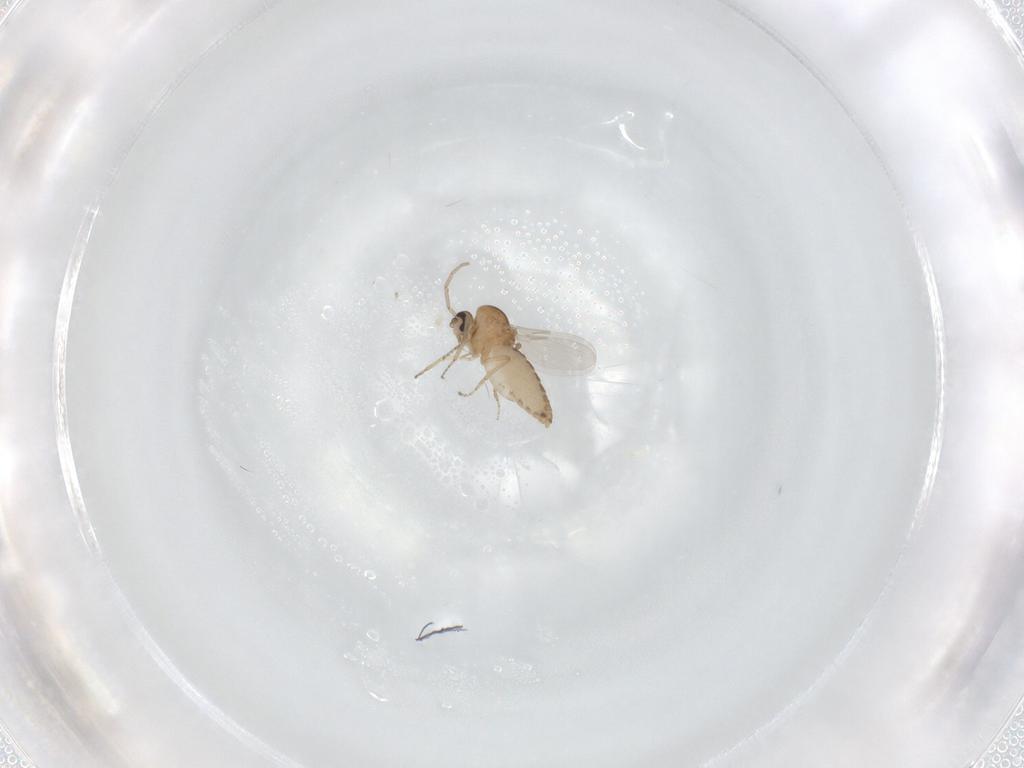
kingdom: Animalia
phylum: Arthropoda
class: Insecta
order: Diptera
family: Ceratopogonidae
